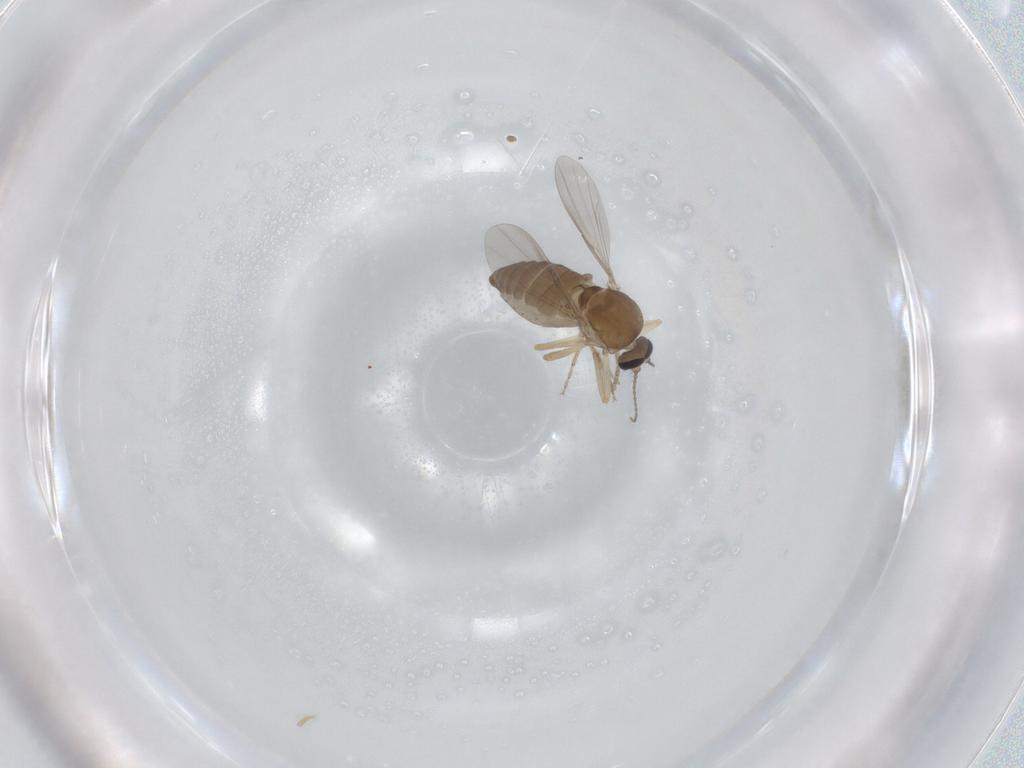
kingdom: Animalia
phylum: Arthropoda
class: Insecta
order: Diptera
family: Ceratopogonidae
